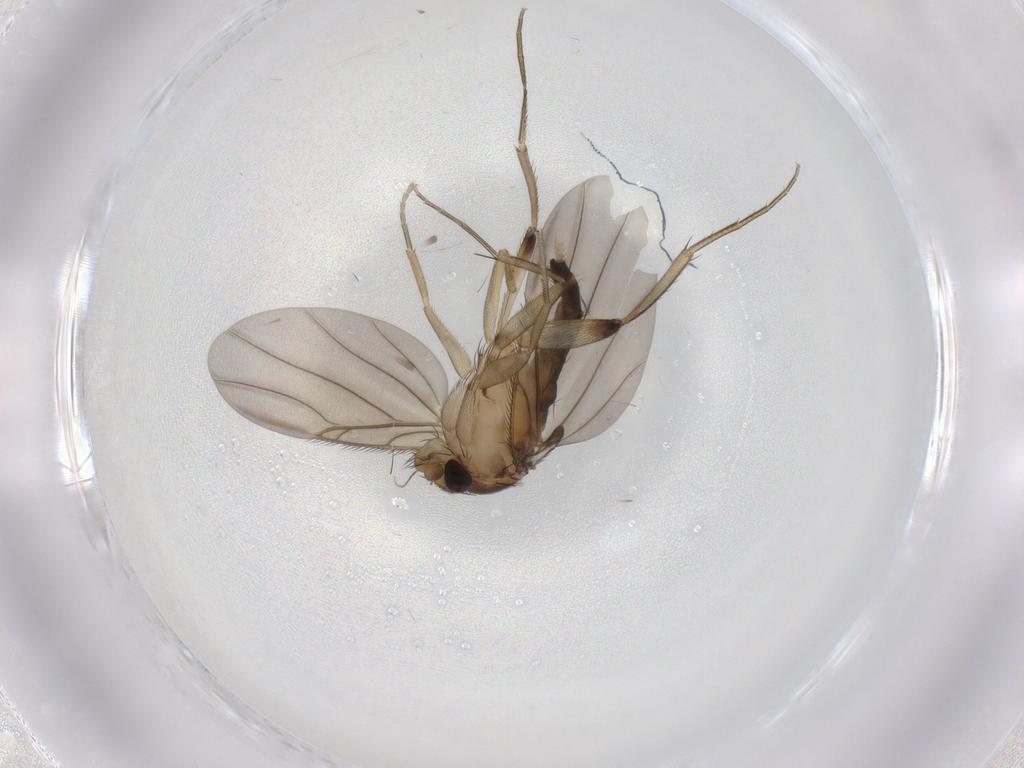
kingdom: Animalia
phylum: Arthropoda
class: Insecta
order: Diptera
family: Phoridae
